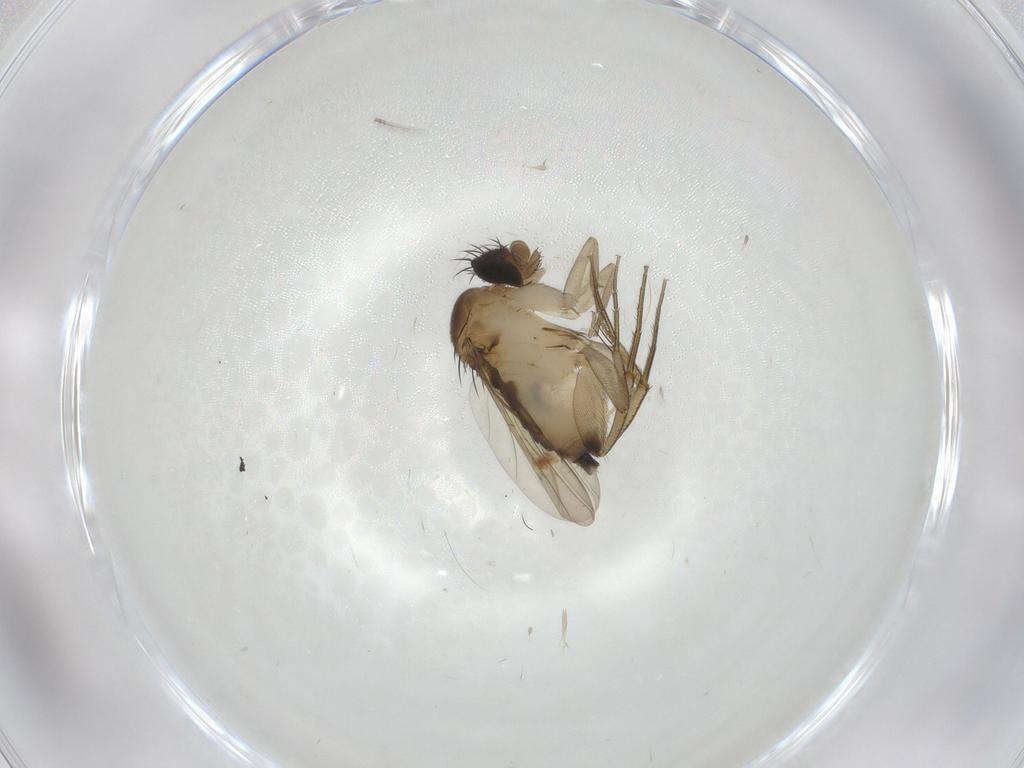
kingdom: Animalia
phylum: Arthropoda
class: Insecta
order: Diptera
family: Phoridae
